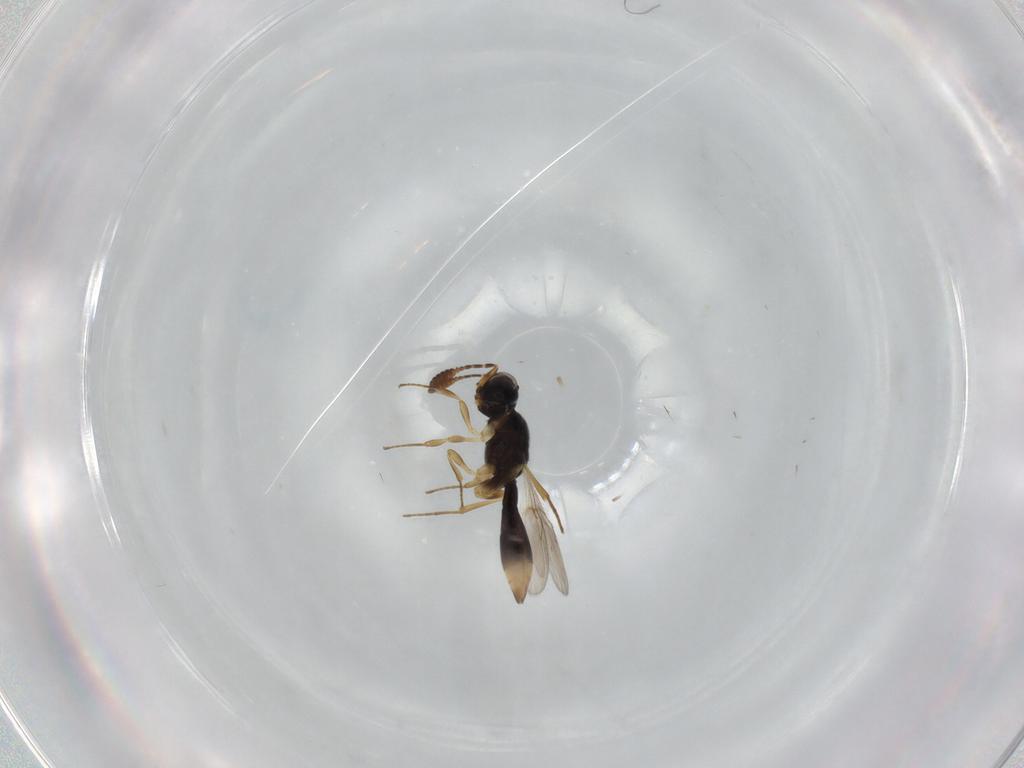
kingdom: Animalia
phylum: Arthropoda
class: Insecta
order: Hymenoptera
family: Scelionidae
